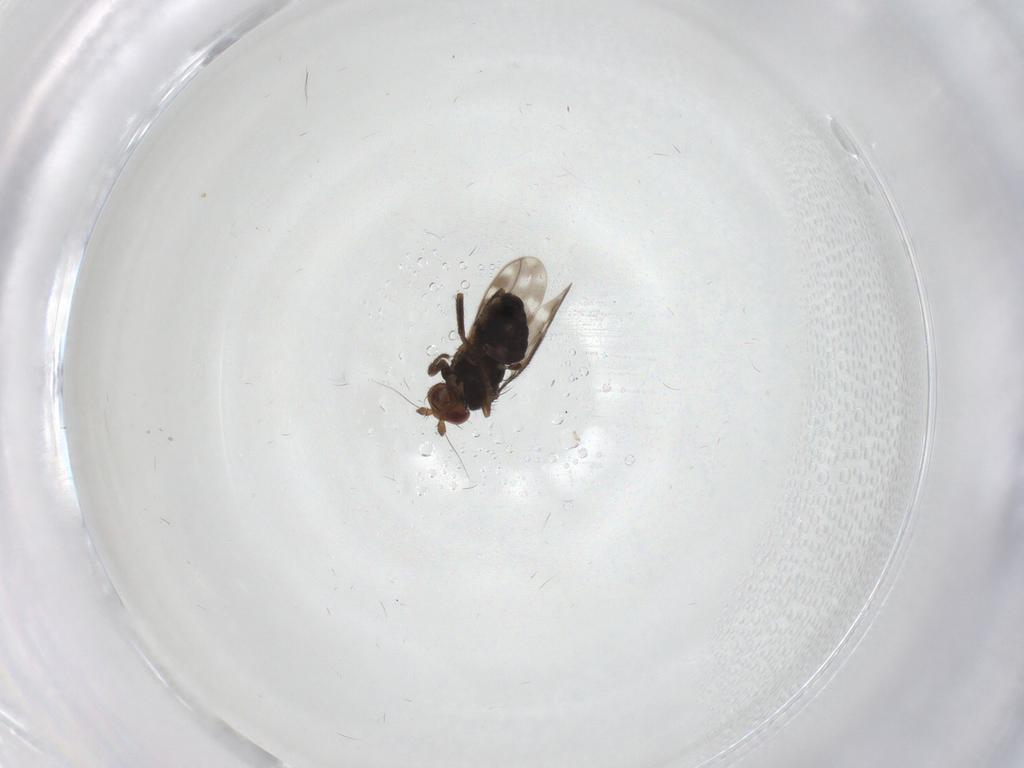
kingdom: Animalia
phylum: Arthropoda
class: Insecta
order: Diptera
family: Sphaeroceridae
